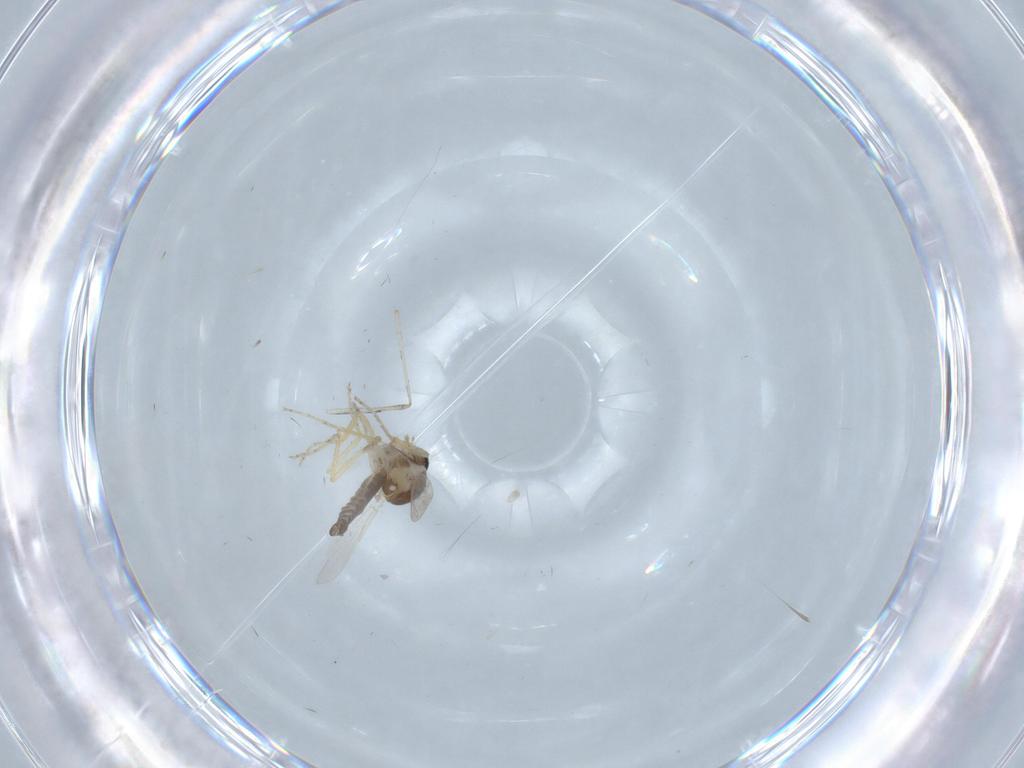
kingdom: Animalia
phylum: Arthropoda
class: Insecta
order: Diptera
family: Ceratopogonidae
